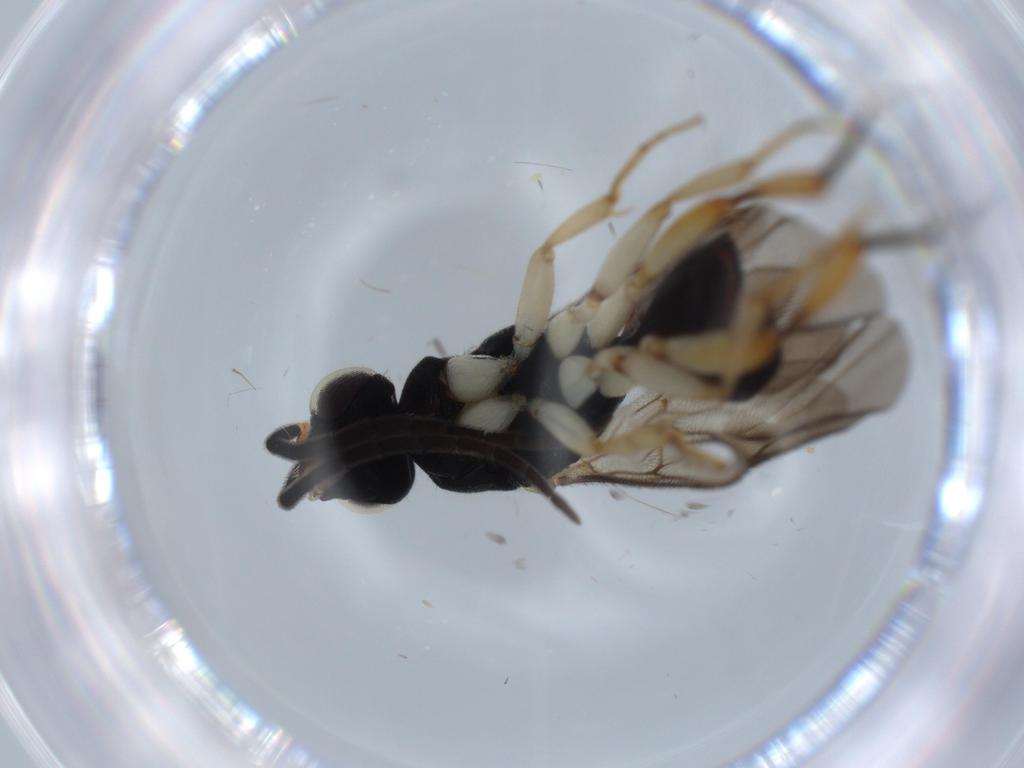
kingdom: Animalia
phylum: Arthropoda
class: Insecta
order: Hymenoptera
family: Chrysididae
